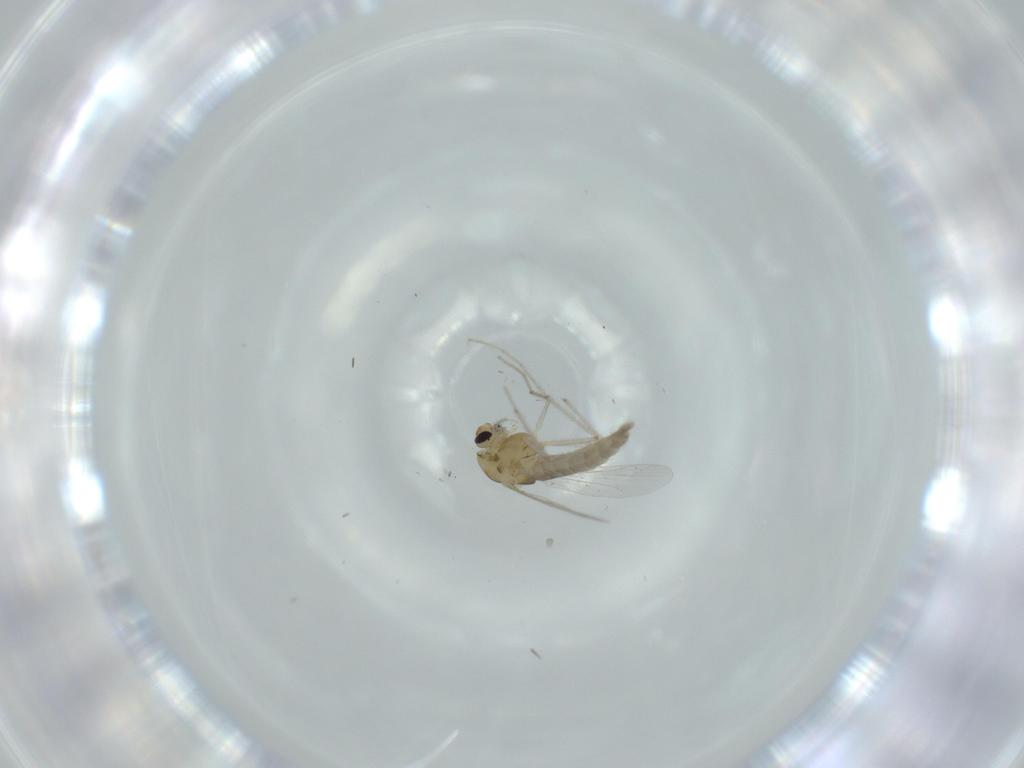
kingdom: Animalia
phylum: Arthropoda
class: Insecta
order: Diptera
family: Chironomidae
